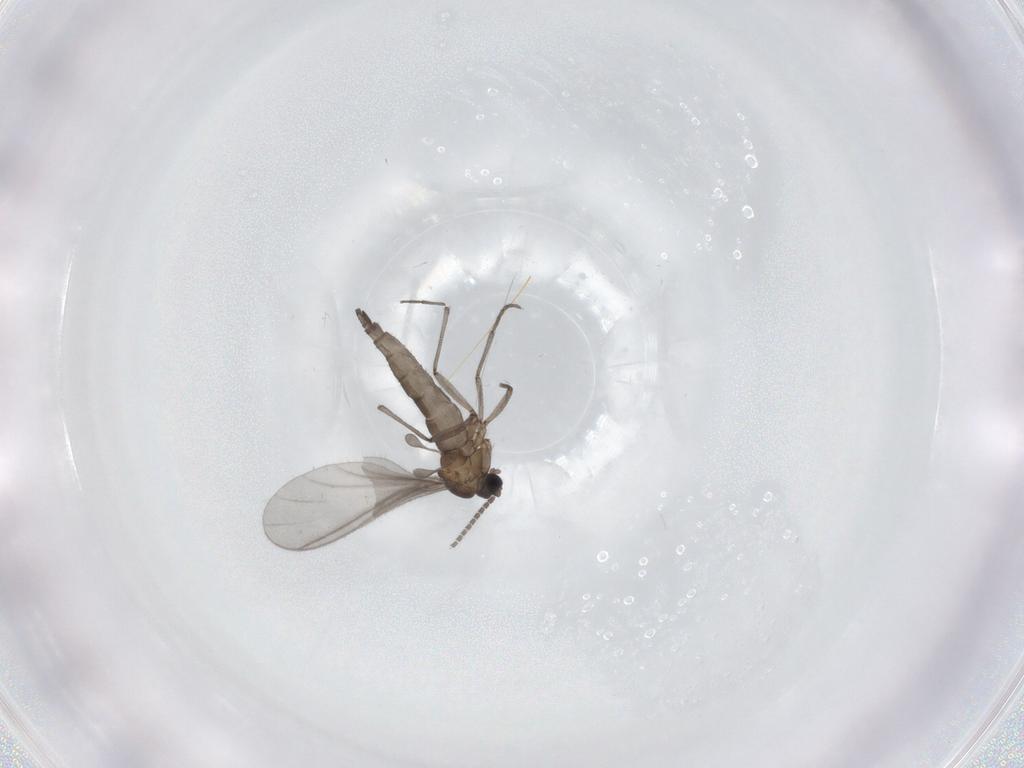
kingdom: Animalia
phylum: Arthropoda
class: Insecta
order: Diptera
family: Sciaridae
